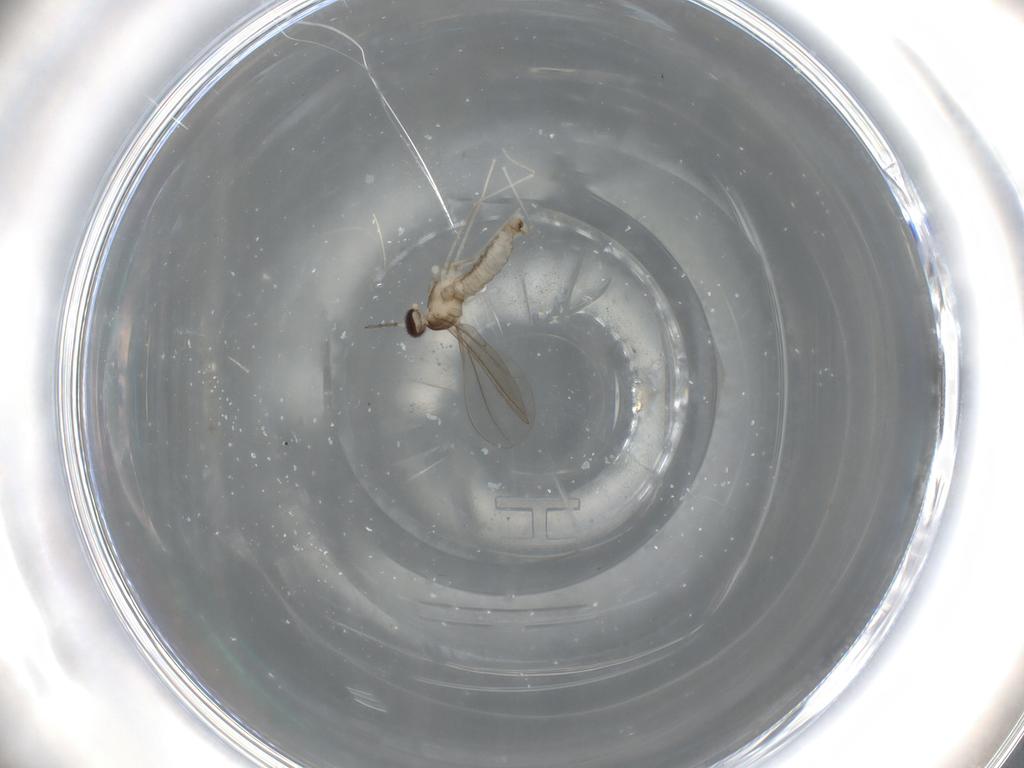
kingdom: Animalia
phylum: Arthropoda
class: Insecta
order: Diptera
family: Cecidomyiidae
